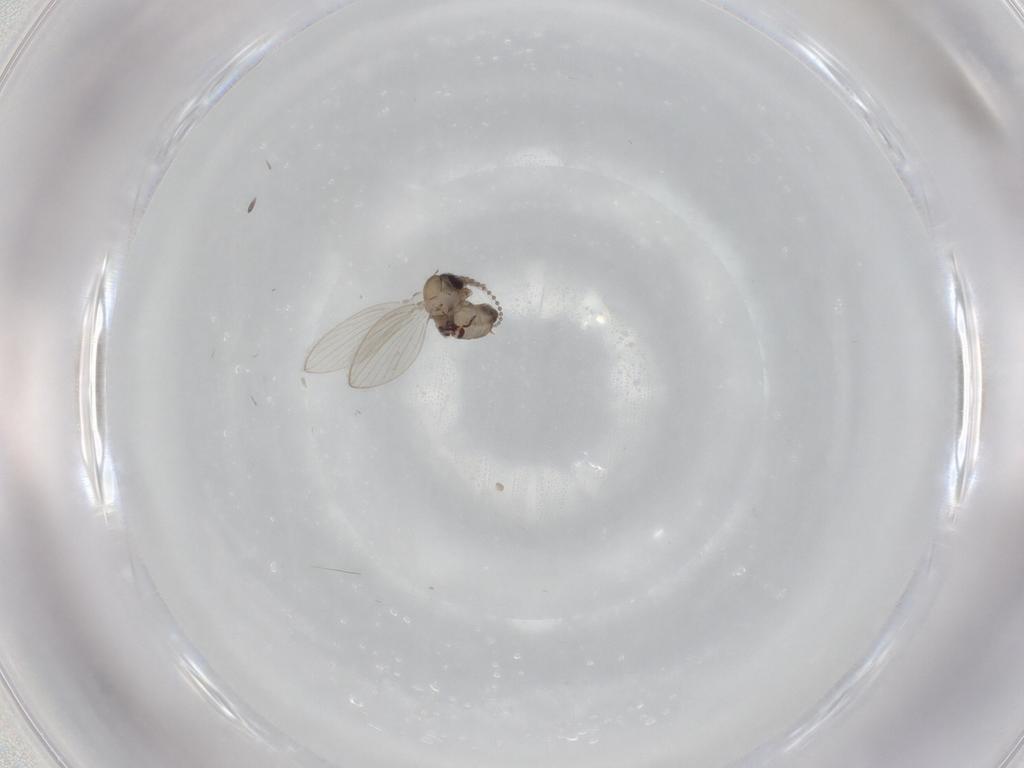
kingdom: Animalia
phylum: Arthropoda
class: Insecta
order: Diptera
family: Psychodidae
